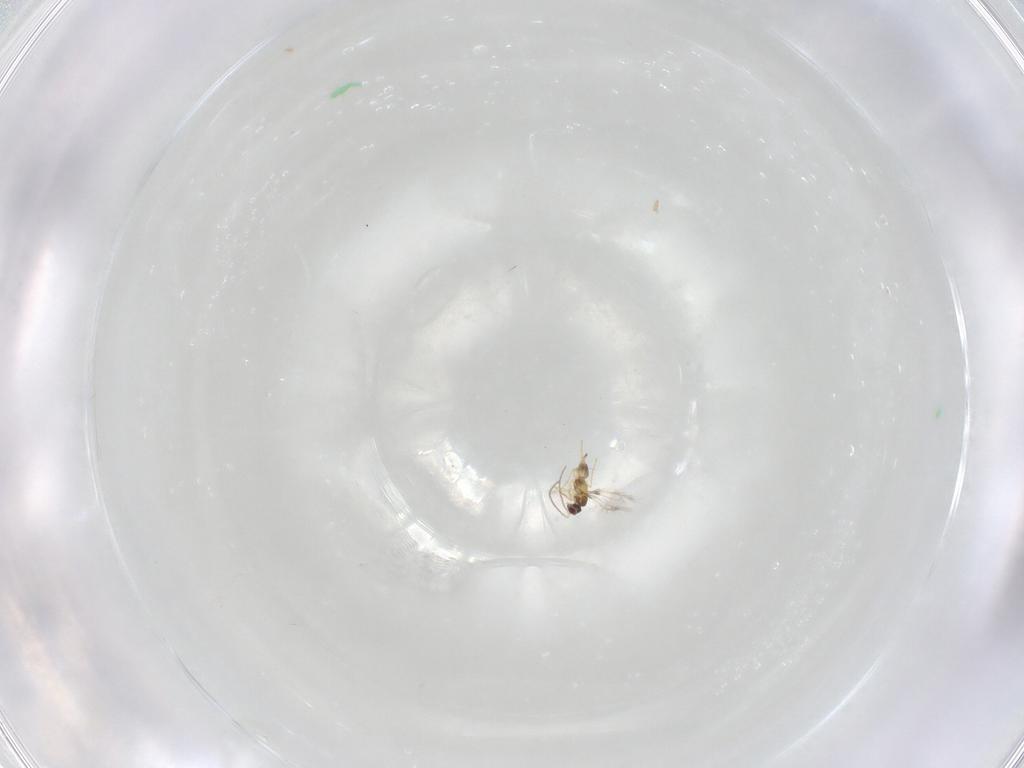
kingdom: Animalia
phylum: Arthropoda
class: Insecta
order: Diptera
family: Cecidomyiidae
